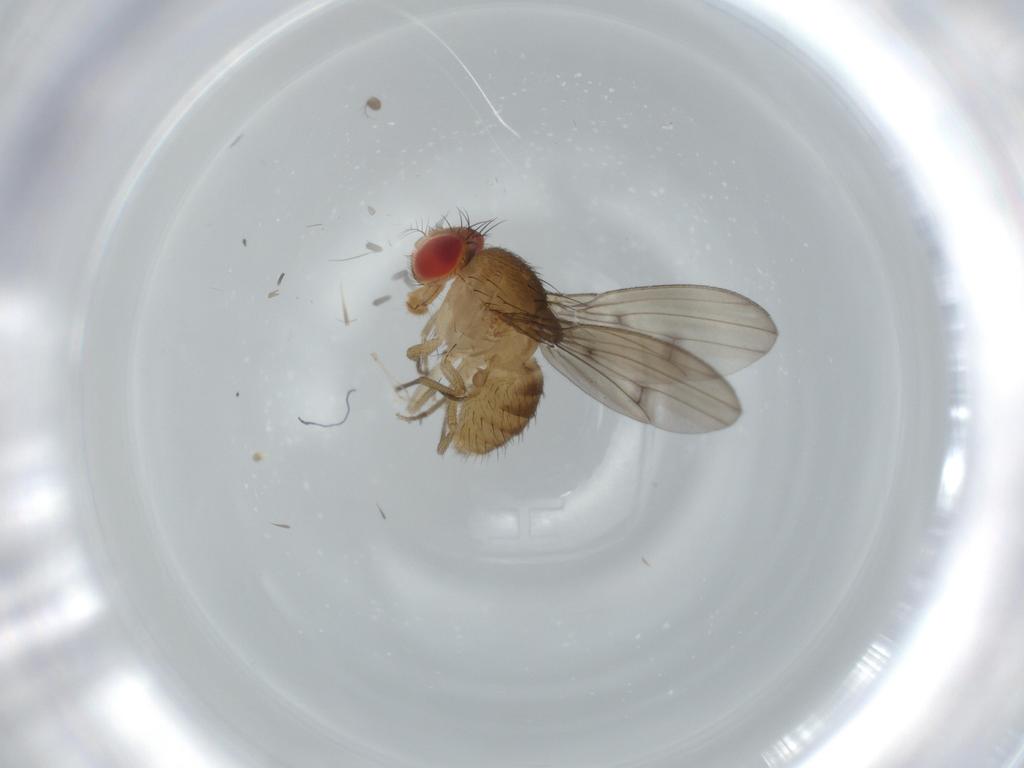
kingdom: Animalia
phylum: Arthropoda
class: Insecta
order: Diptera
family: Drosophilidae
